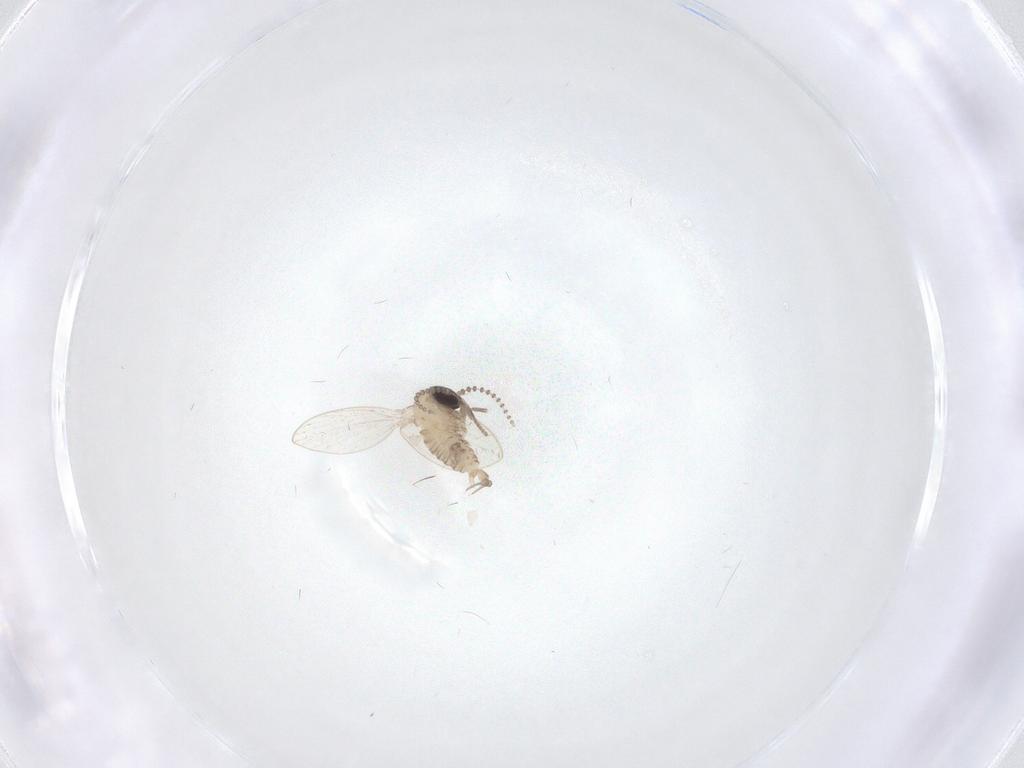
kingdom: Animalia
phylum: Arthropoda
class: Insecta
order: Diptera
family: Psychodidae
